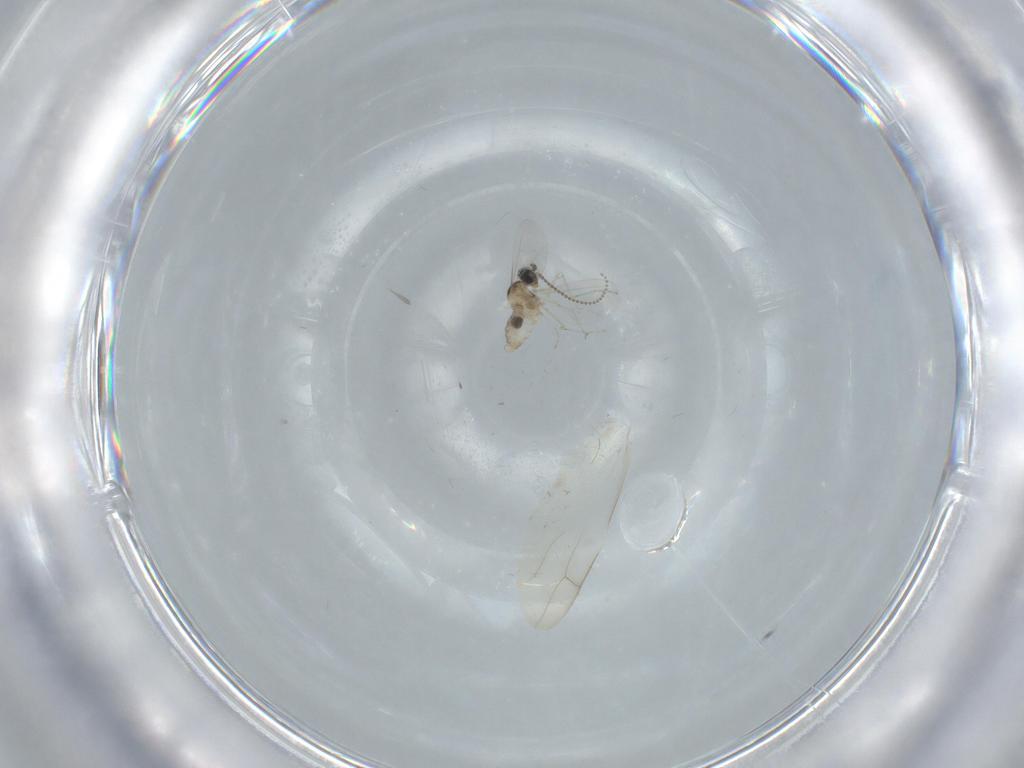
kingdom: Animalia
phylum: Arthropoda
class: Insecta
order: Diptera
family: Cecidomyiidae
